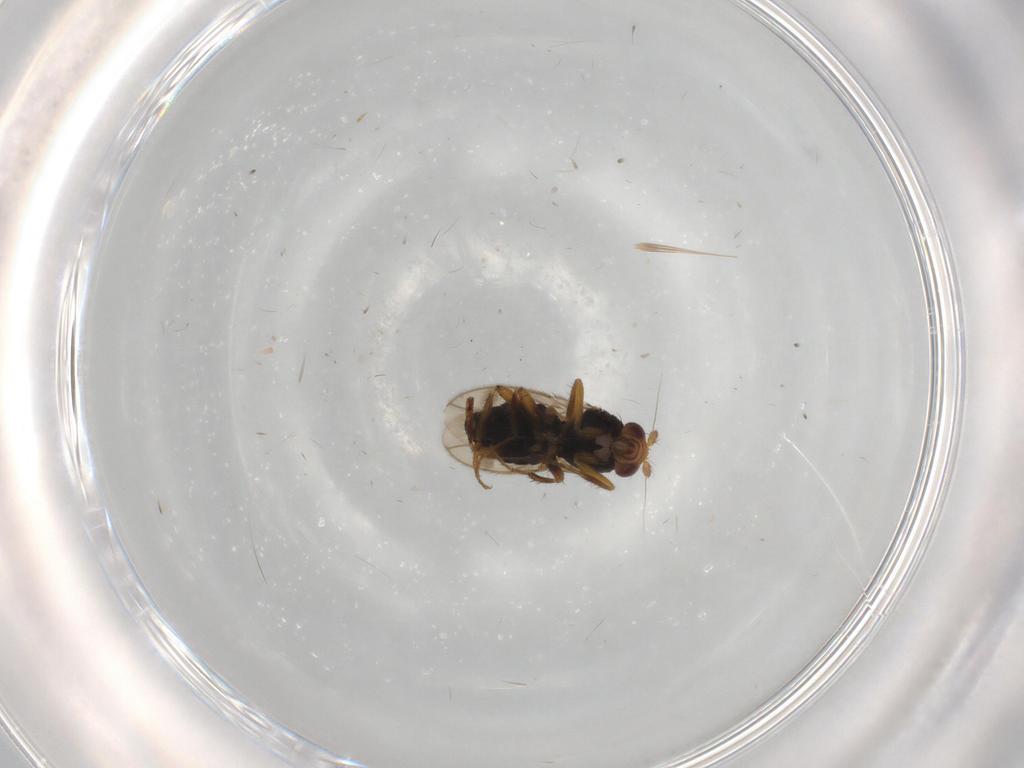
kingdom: Animalia
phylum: Arthropoda
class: Insecta
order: Diptera
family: Sphaeroceridae
